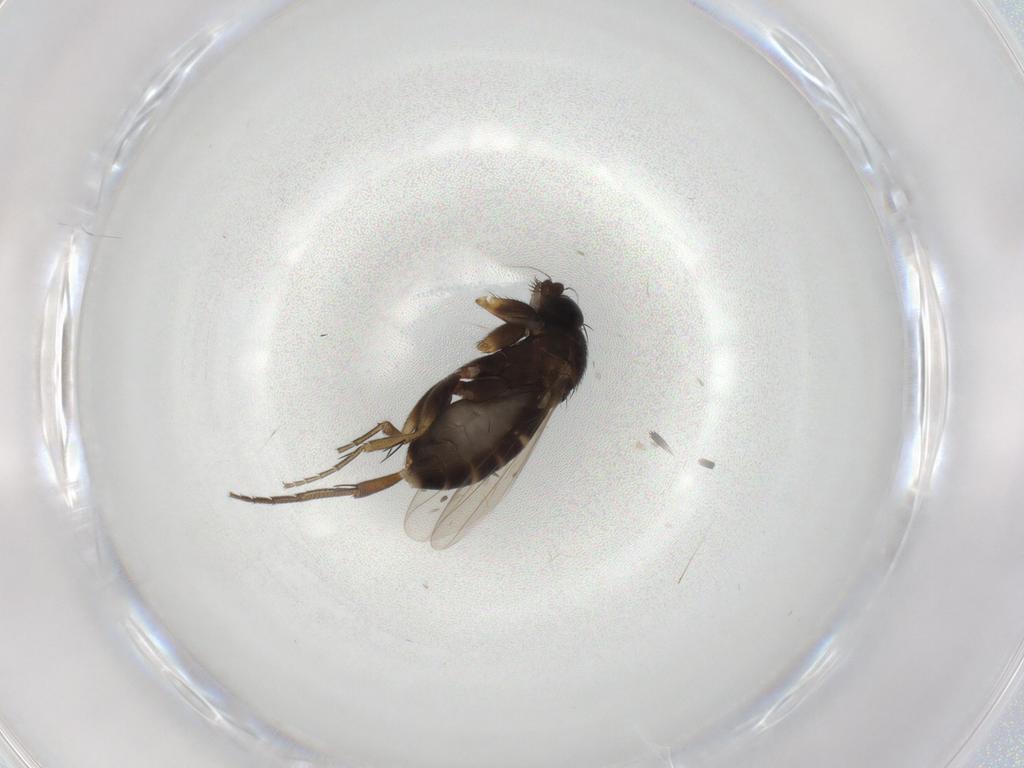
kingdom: Animalia
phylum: Arthropoda
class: Insecta
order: Diptera
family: Phoridae
